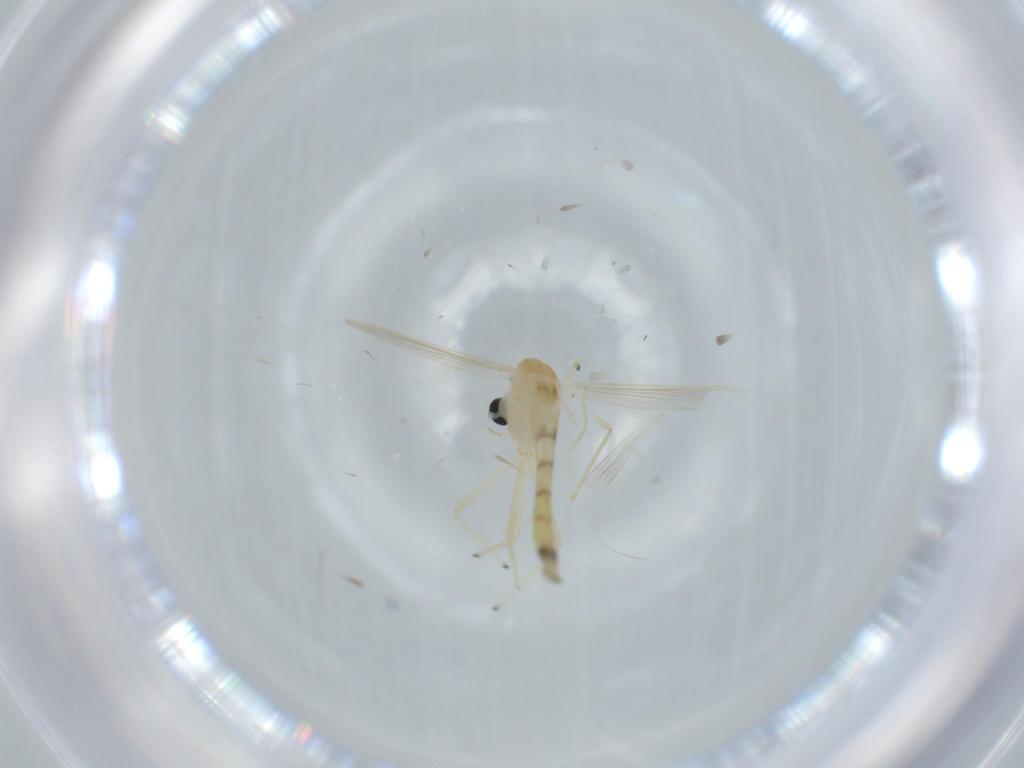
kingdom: Animalia
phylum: Arthropoda
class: Insecta
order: Diptera
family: Chironomidae
